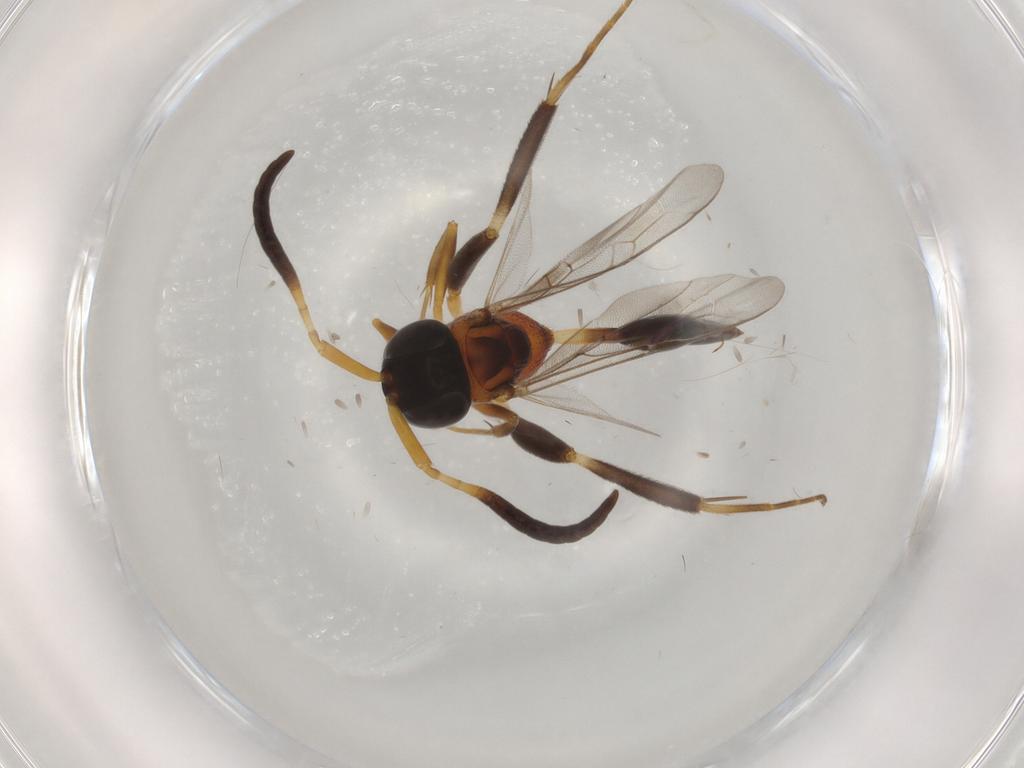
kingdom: Animalia
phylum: Arthropoda
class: Insecta
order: Hymenoptera
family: Evaniidae
